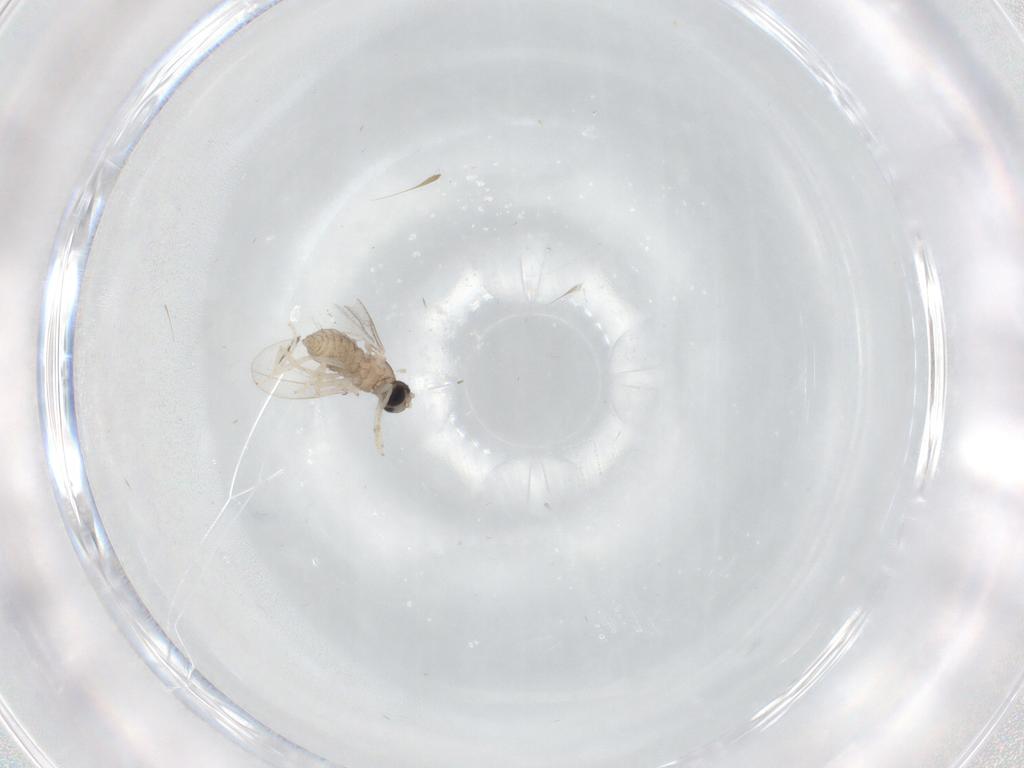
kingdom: Animalia
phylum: Arthropoda
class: Insecta
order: Diptera
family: Cecidomyiidae
